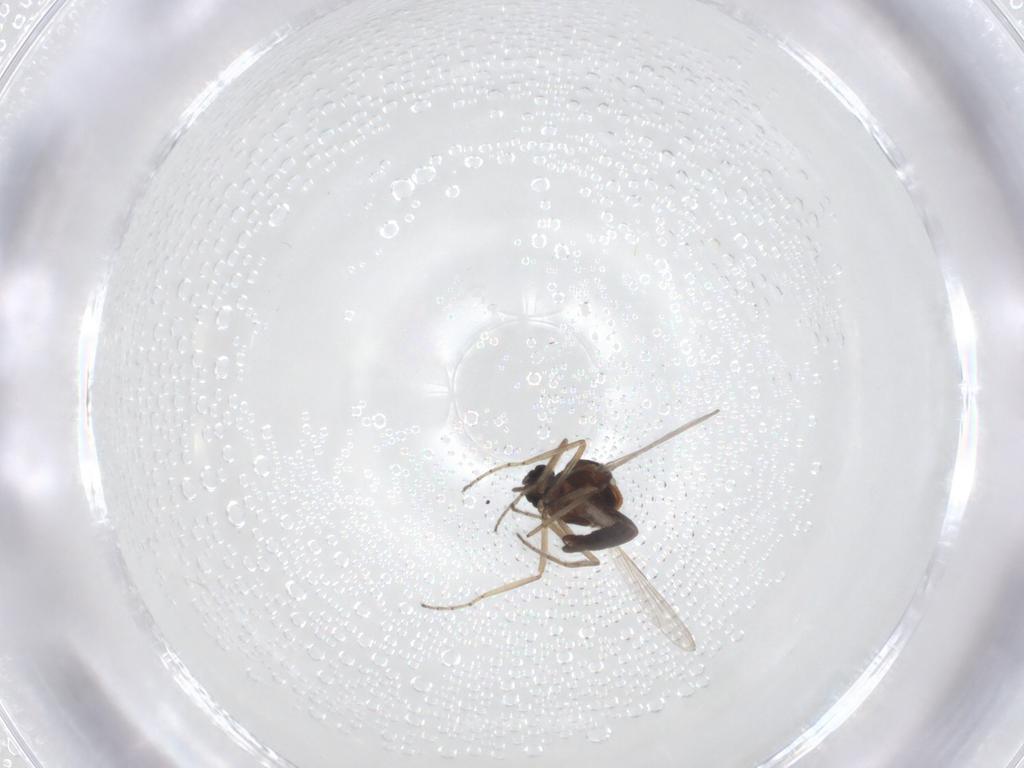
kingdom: Animalia
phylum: Arthropoda
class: Insecta
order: Diptera
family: Ceratopogonidae
